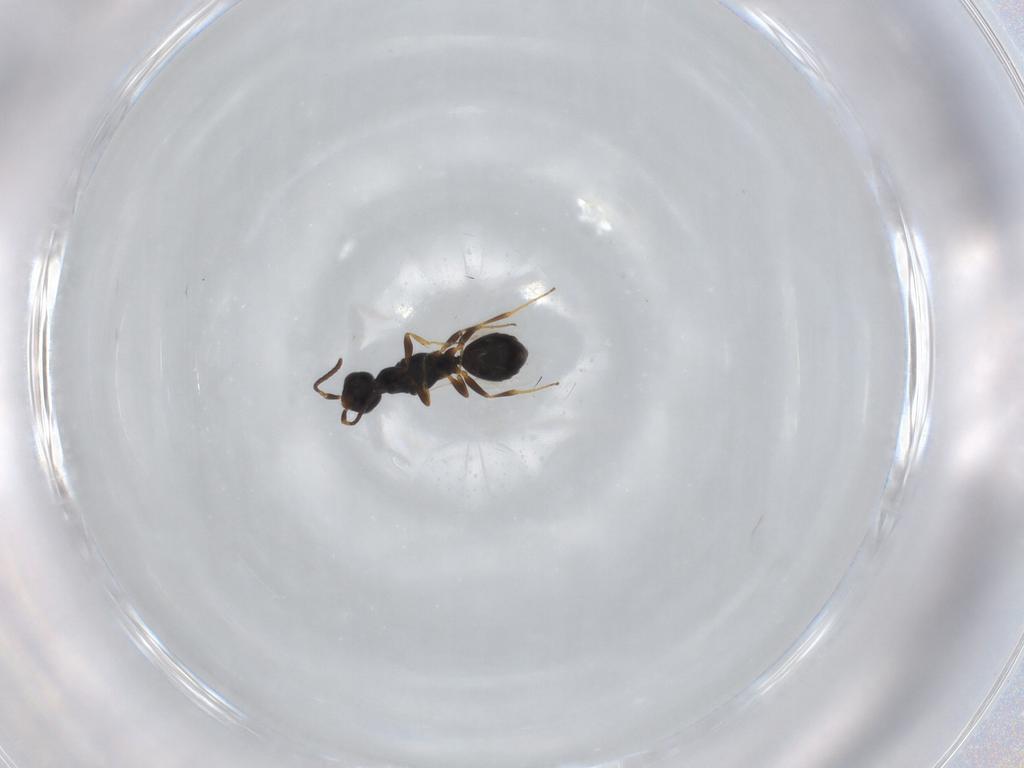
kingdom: Animalia
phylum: Arthropoda
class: Insecta
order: Hymenoptera
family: Bethylidae
